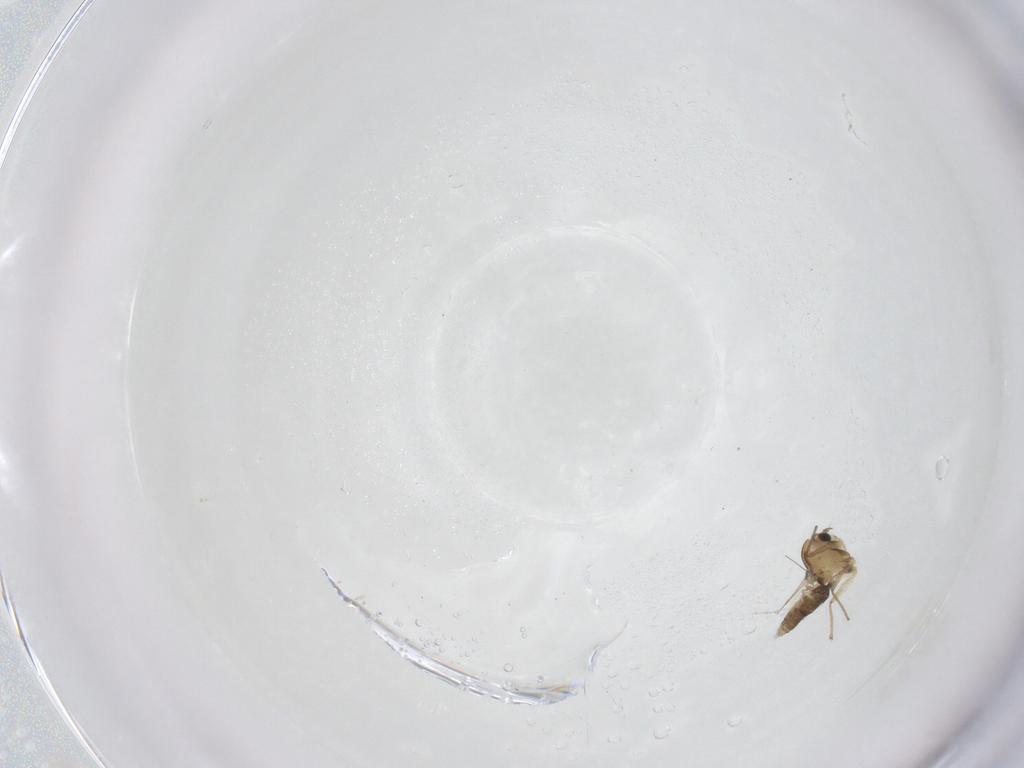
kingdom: Animalia
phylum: Arthropoda
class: Insecta
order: Diptera
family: Chironomidae
